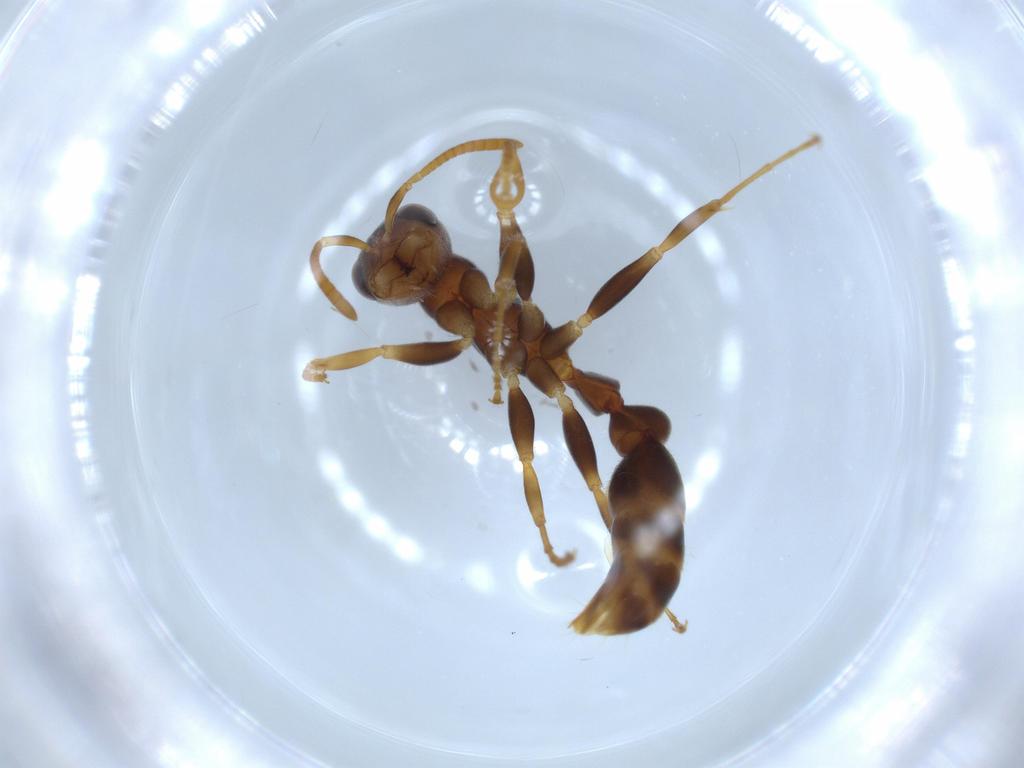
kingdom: Animalia
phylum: Arthropoda
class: Insecta
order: Hymenoptera
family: Formicidae
